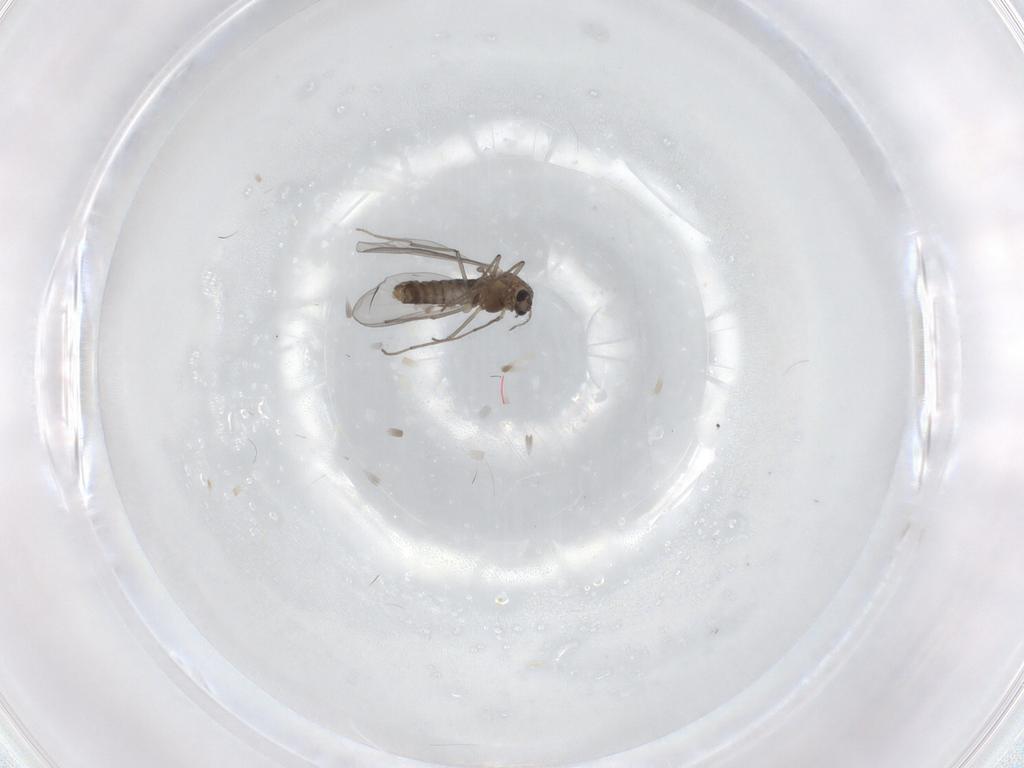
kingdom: Animalia
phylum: Arthropoda
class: Insecta
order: Diptera
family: Chironomidae
